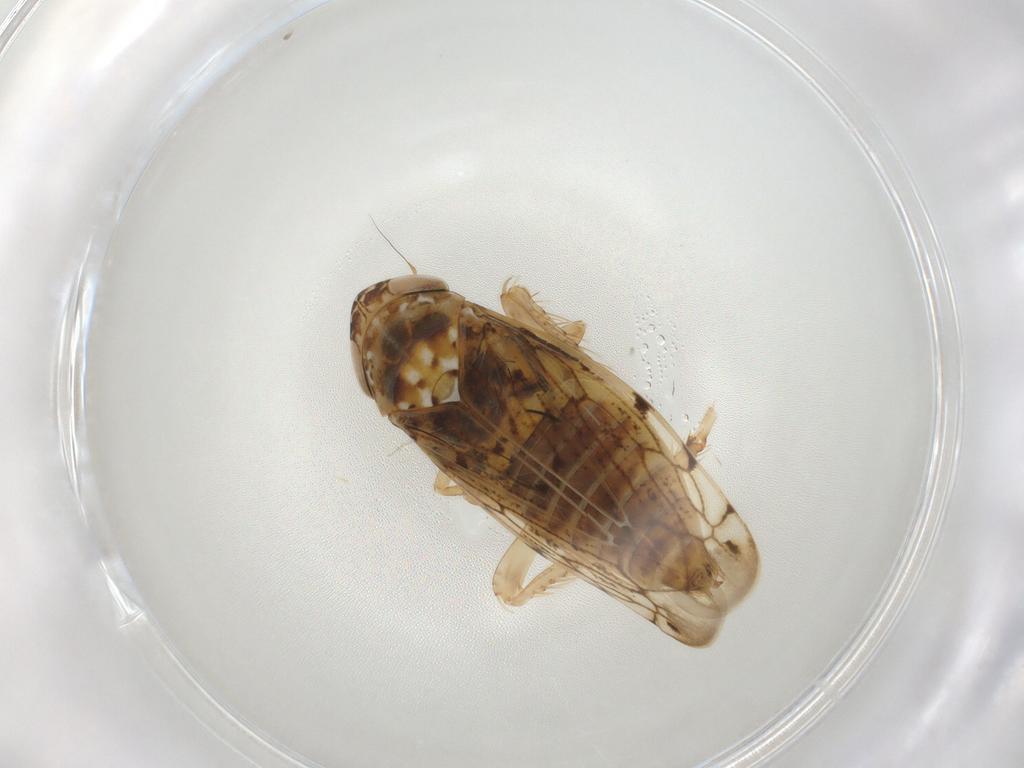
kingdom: Animalia
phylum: Arthropoda
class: Insecta
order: Hemiptera
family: Cicadellidae
